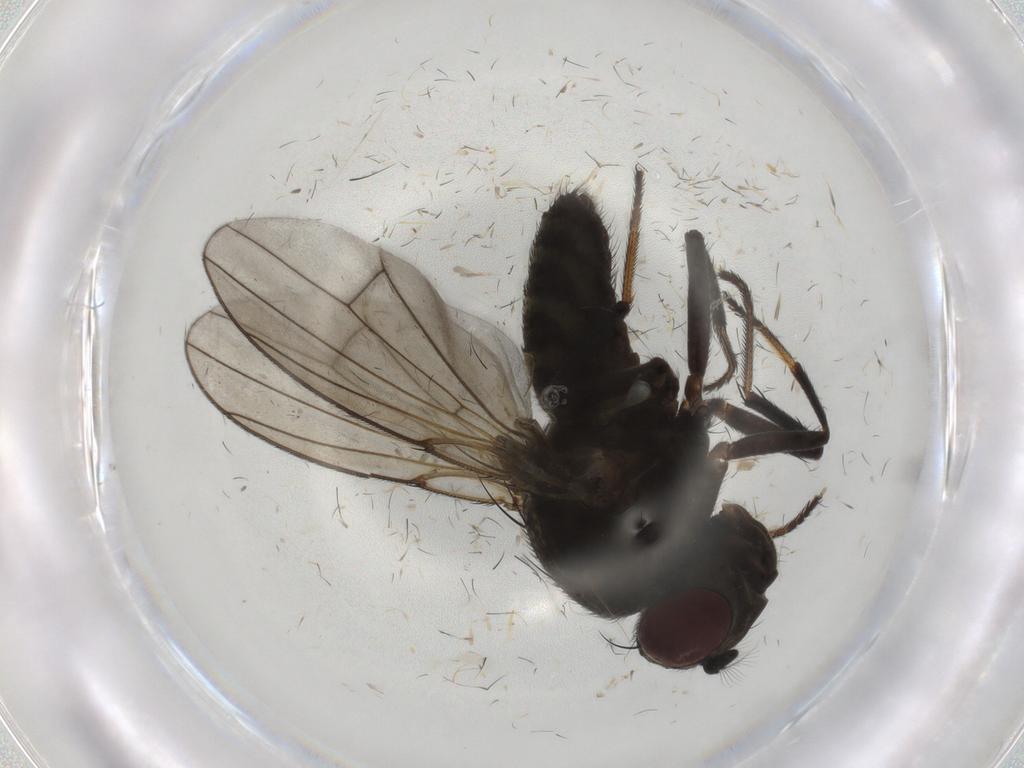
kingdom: Animalia
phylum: Arthropoda
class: Insecta
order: Diptera
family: Ephydridae
